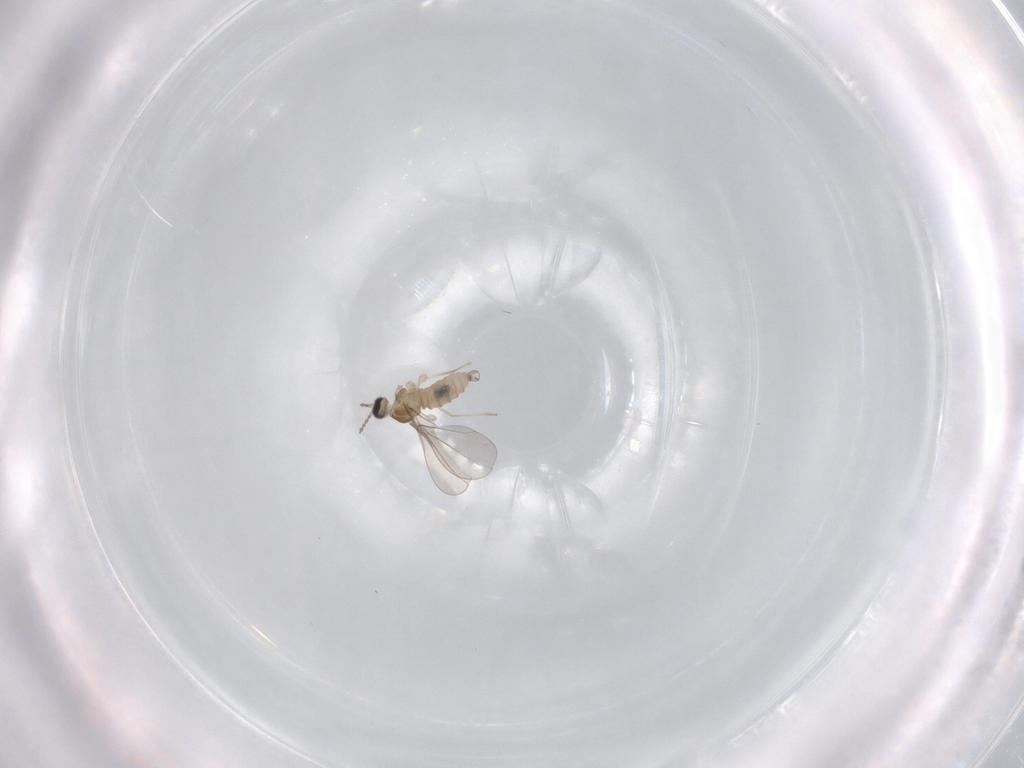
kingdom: Animalia
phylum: Arthropoda
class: Insecta
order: Diptera
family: Cecidomyiidae
